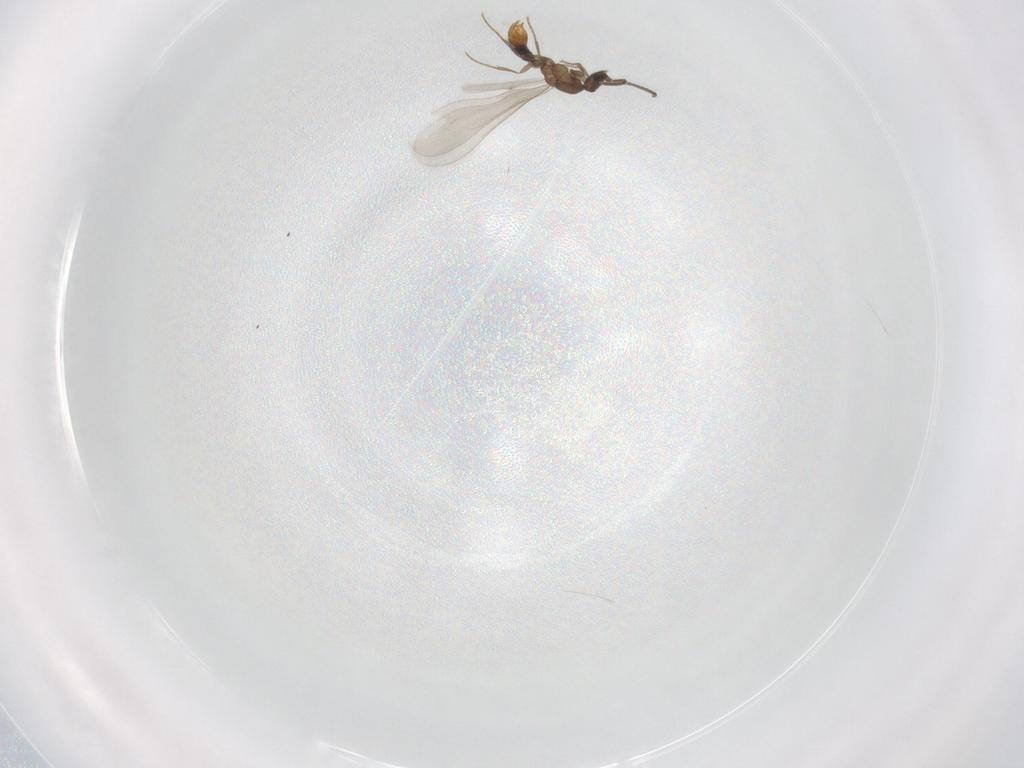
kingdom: Animalia
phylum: Arthropoda
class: Insecta
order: Hymenoptera
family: Formicidae
